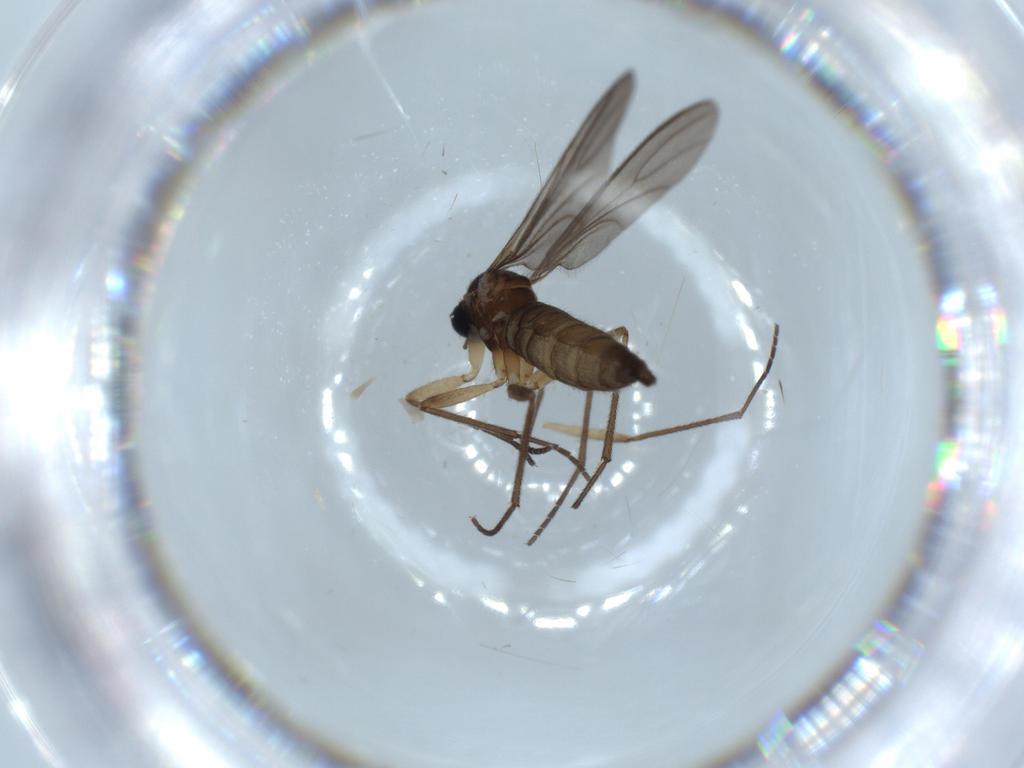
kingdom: Animalia
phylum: Arthropoda
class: Insecta
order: Diptera
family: Sciaridae
